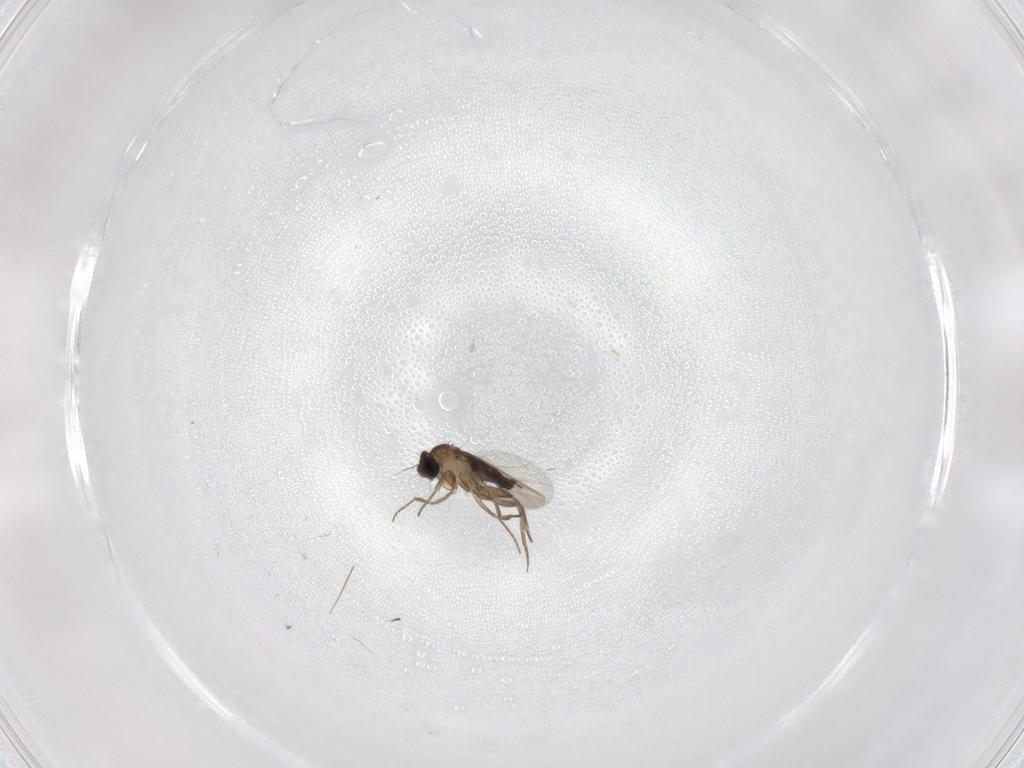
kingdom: Animalia
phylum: Arthropoda
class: Insecta
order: Diptera
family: Cecidomyiidae
